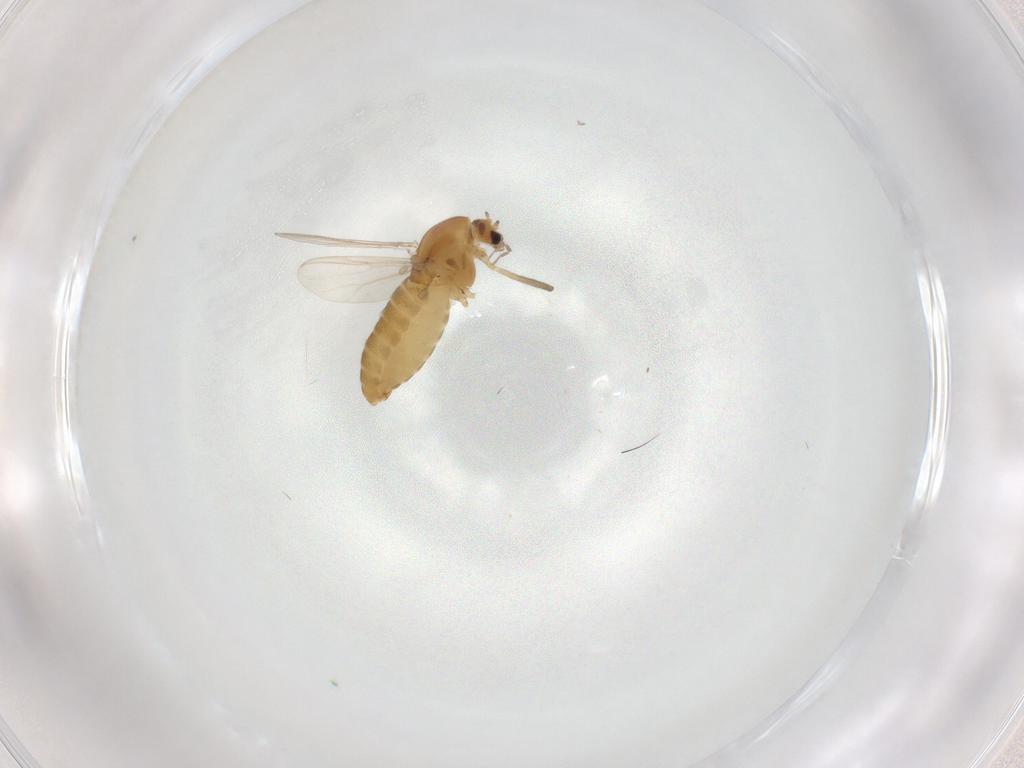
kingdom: Animalia
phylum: Arthropoda
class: Insecta
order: Diptera
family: Chironomidae
